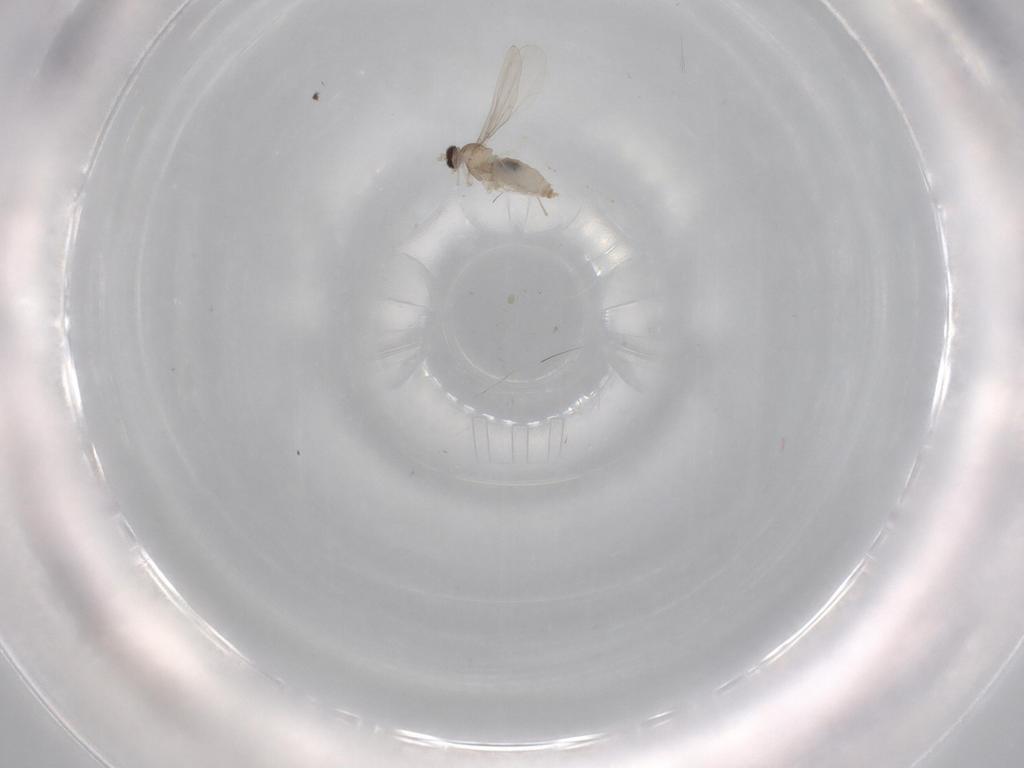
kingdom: Animalia
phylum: Arthropoda
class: Insecta
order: Diptera
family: Cecidomyiidae
